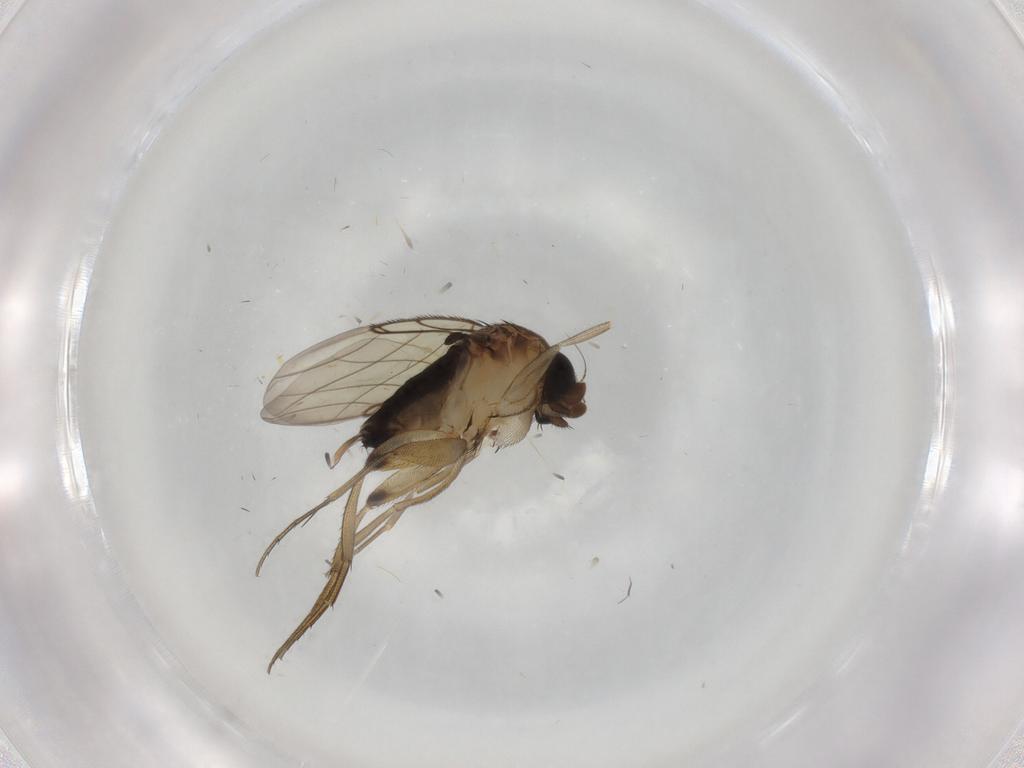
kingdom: Animalia
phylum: Arthropoda
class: Insecta
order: Diptera
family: Phoridae
